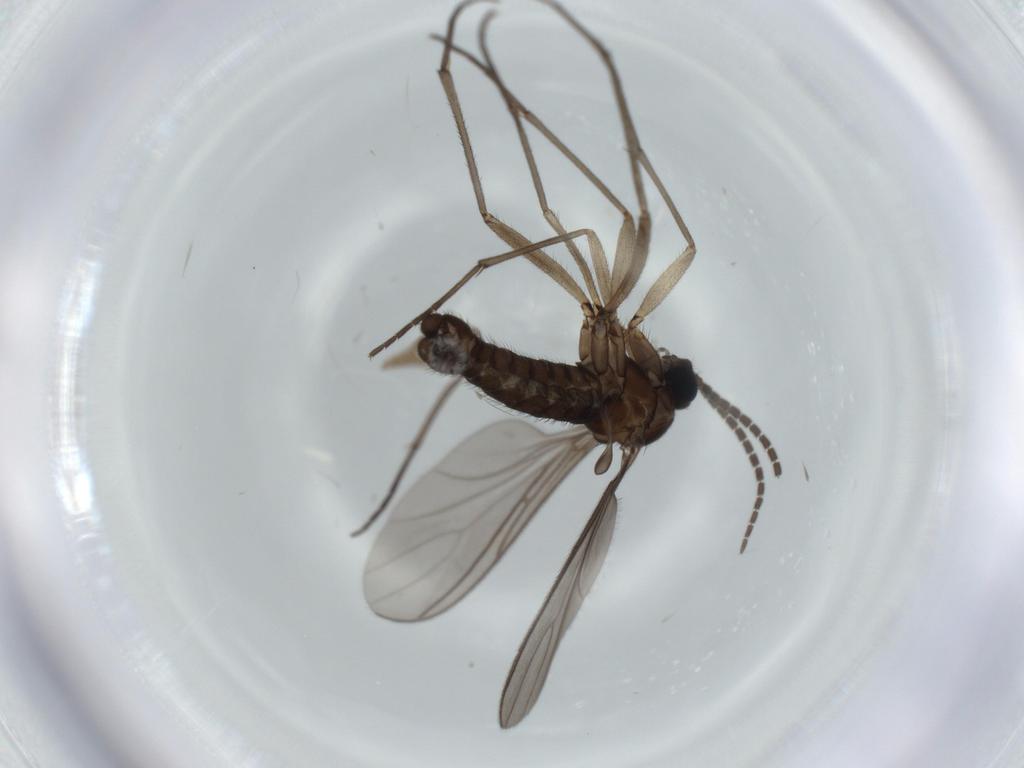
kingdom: Animalia
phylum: Arthropoda
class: Insecta
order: Diptera
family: Sciaridae
